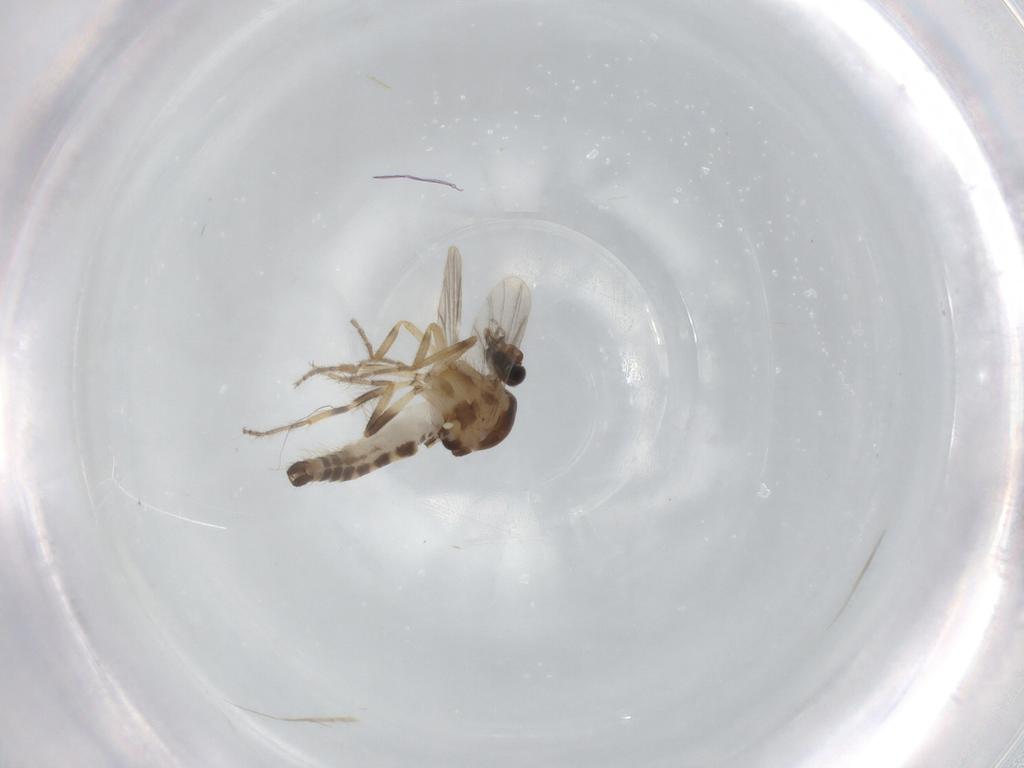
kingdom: Animalia
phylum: Arthropoda
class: Insecta
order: Diptera
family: Ceratopogonidae
